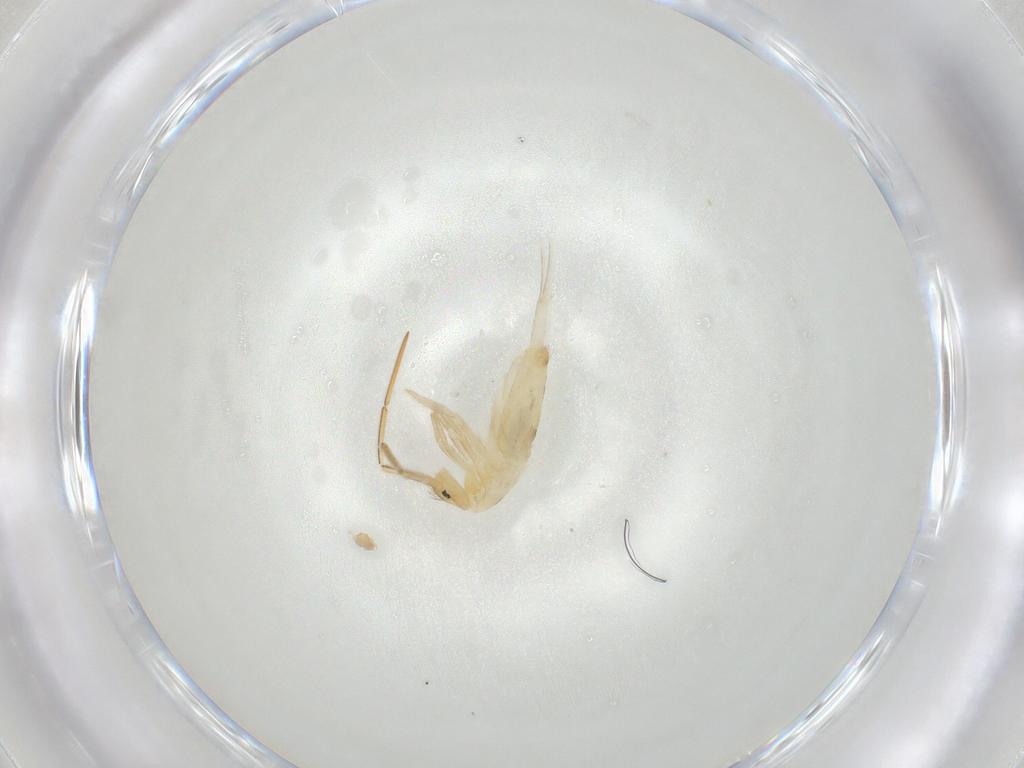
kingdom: Animalia
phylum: Arthropoda
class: Collembola
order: Entomobryomorpha
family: Entomobryidae
